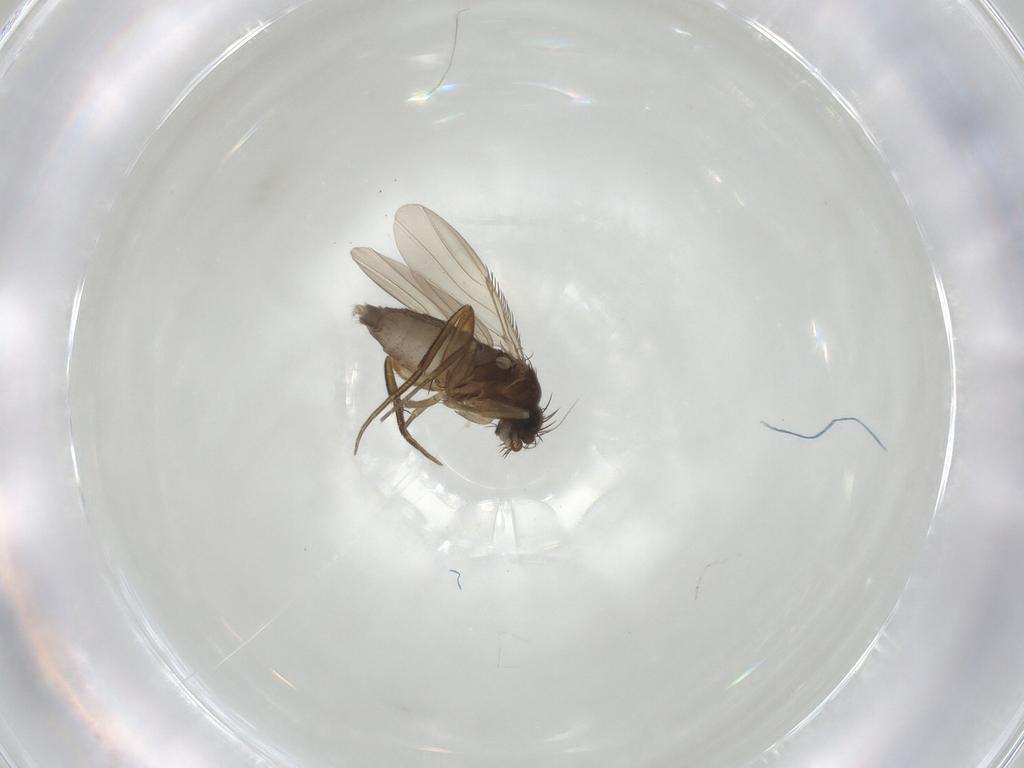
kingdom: Animalia
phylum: Arthropoda
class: Insecta
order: Diptera
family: Phoridae
